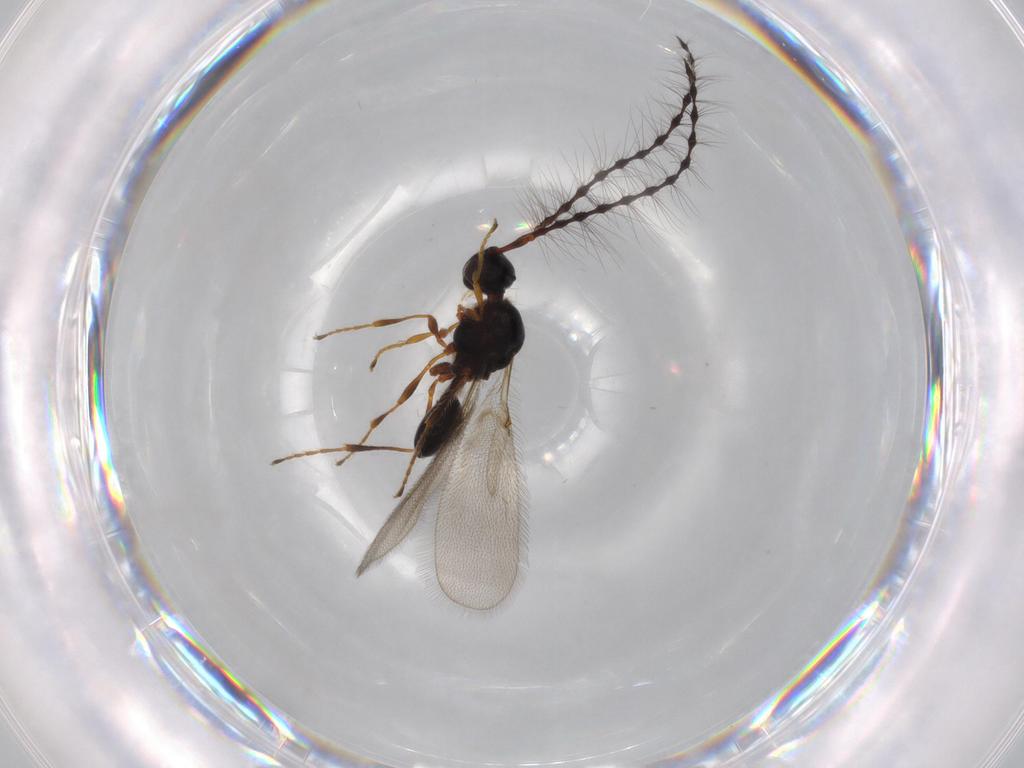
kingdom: Animalia
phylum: Arthropoda
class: Insecta
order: Hymenoptera
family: Diapriidae
